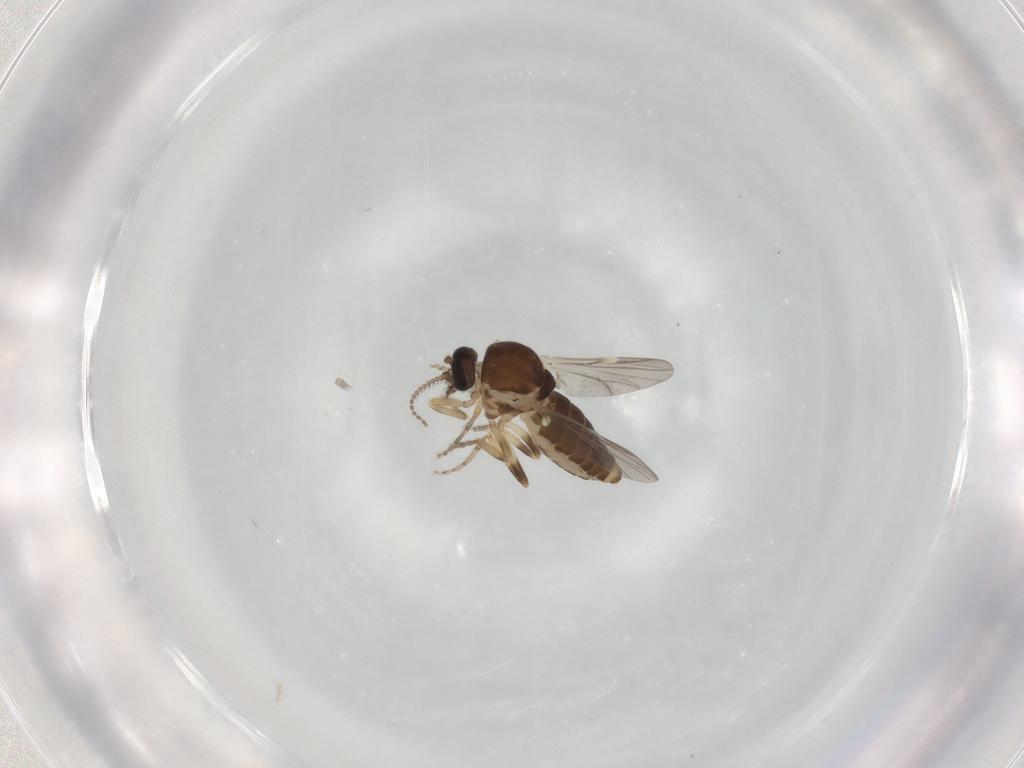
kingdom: Animalia
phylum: Arthropoda
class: Insecta
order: Diptera
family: Ceratopogonidae
